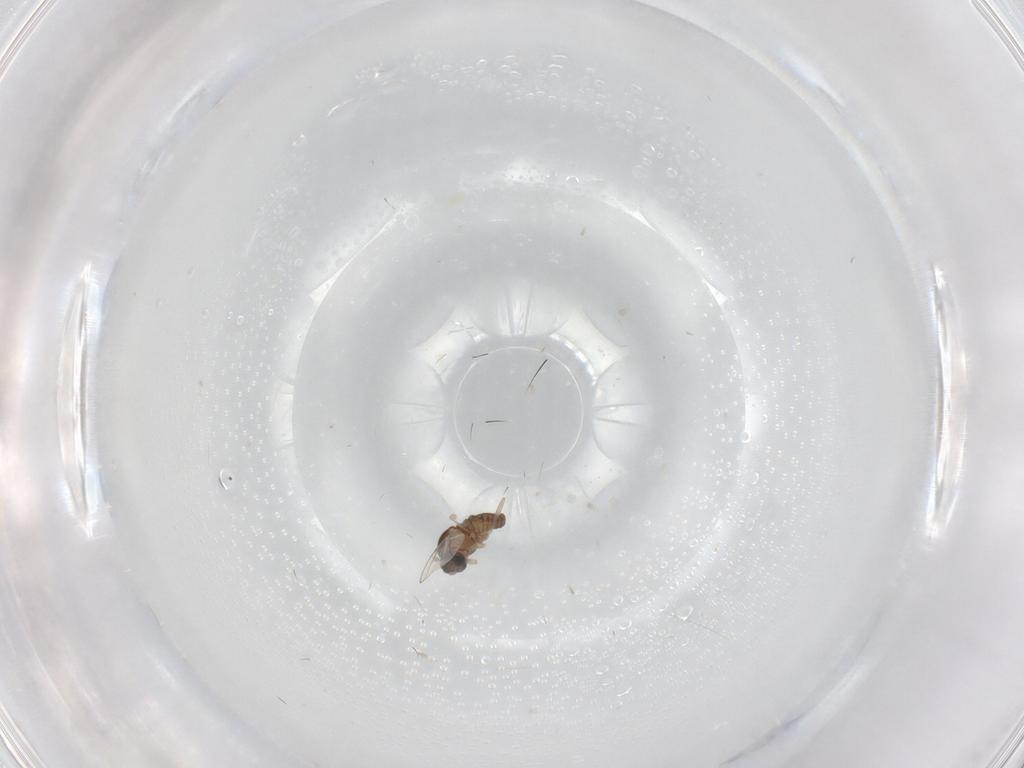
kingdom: Animalia
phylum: Arthropoda
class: Insecta
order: Diptera
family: Cecidomyiidae
